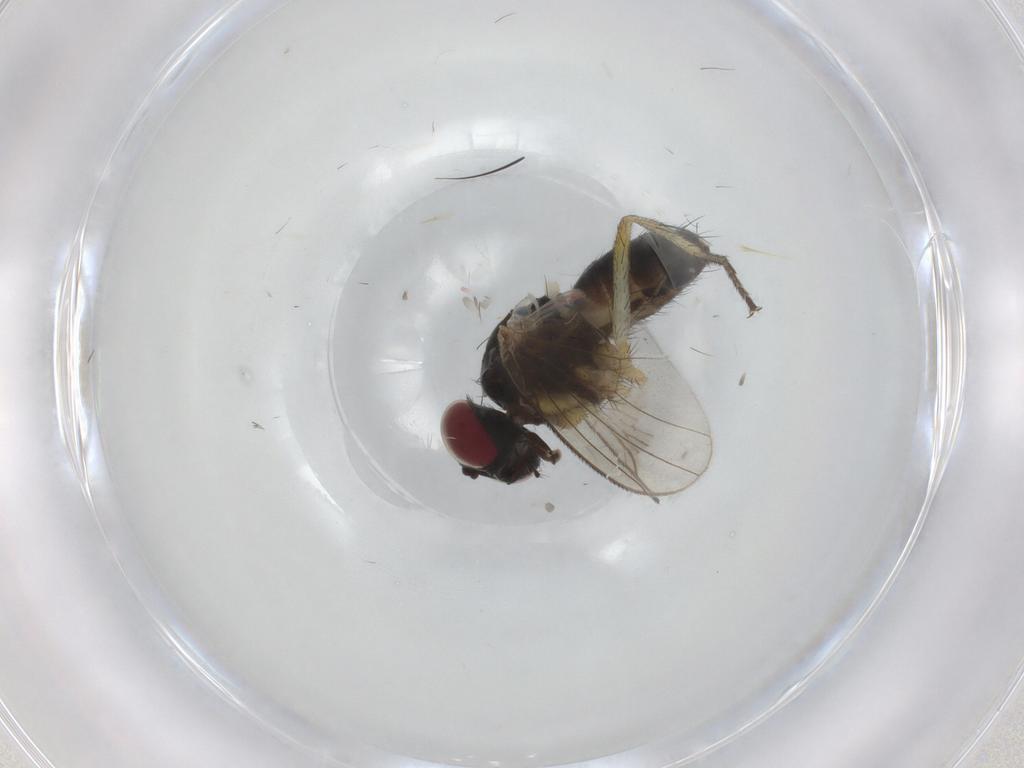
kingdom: Animalia
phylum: Arthropoda
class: Insecta
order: Diptera
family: Muscidae
